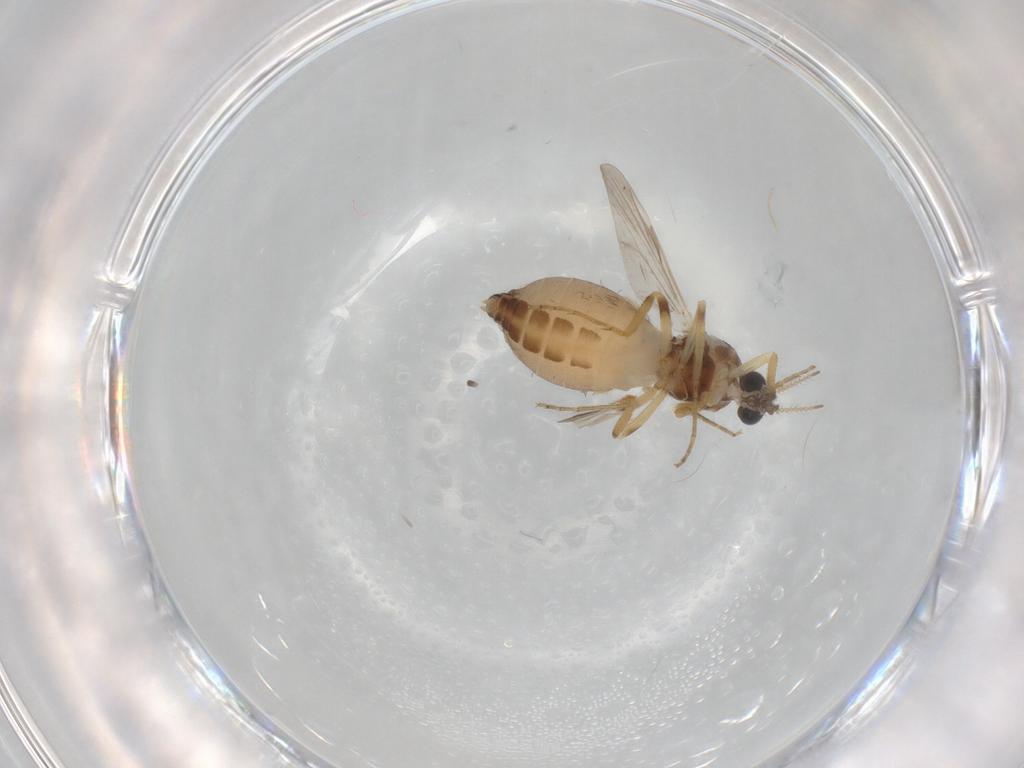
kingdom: Animalia
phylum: Arthropoda
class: Insecta
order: Diptera
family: Ceratopogonidae
